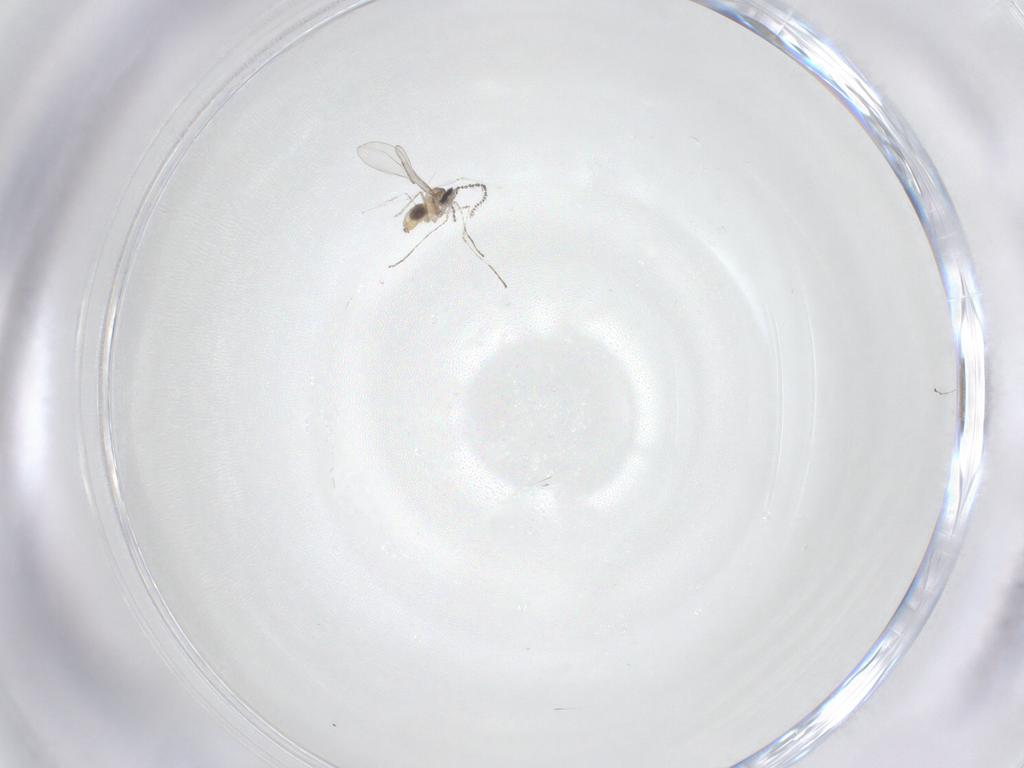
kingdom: Animalia
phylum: Arthropoda
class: Insecta
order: Diptera
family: Cecidomyiidae
